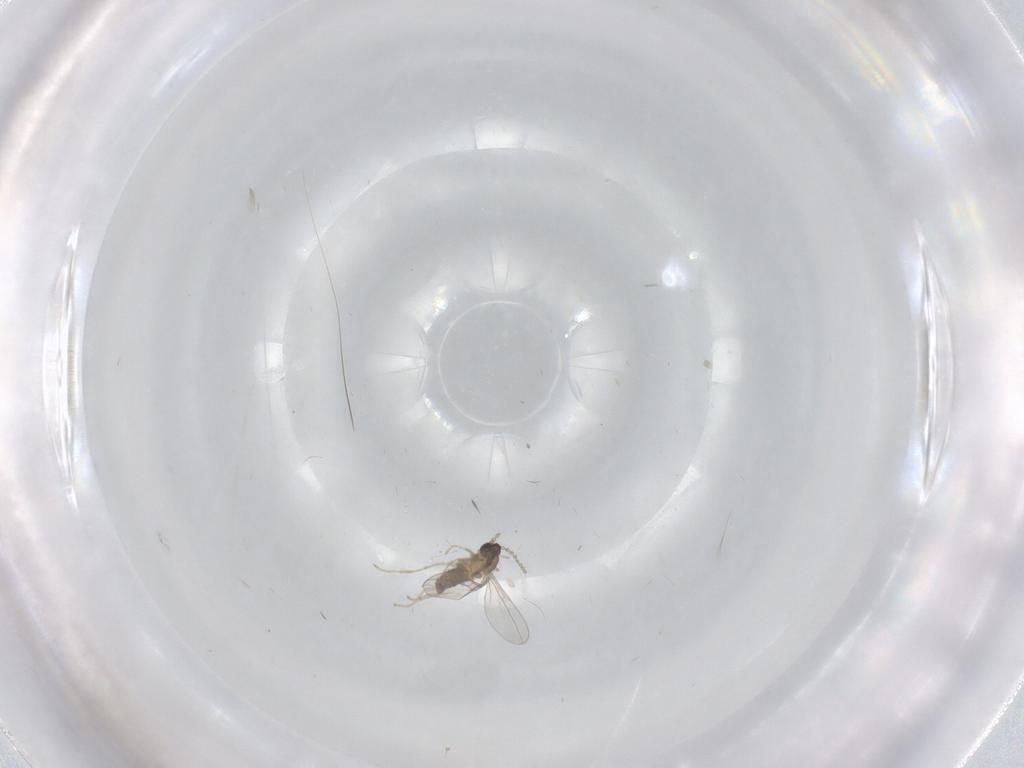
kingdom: Animalia
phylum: Arthropoda
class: Insecta
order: Diptera
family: Cecidomyiidae
